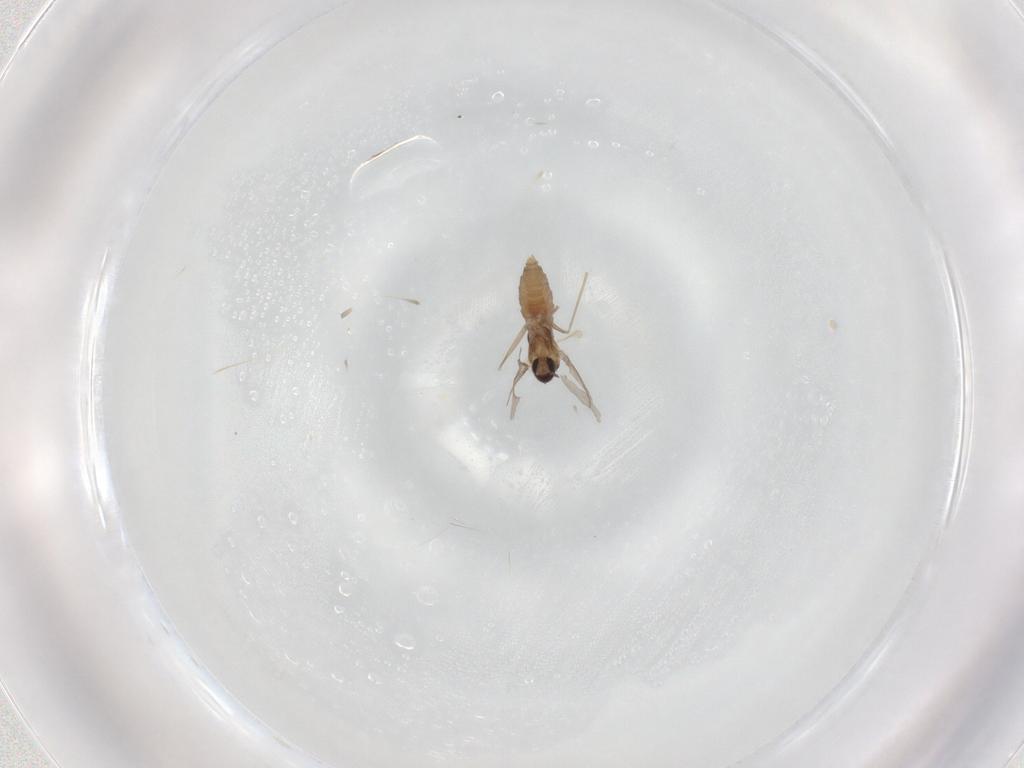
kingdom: Animalia
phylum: Arthropoda
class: Insecta
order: Diptera
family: Cecidomyiidae
